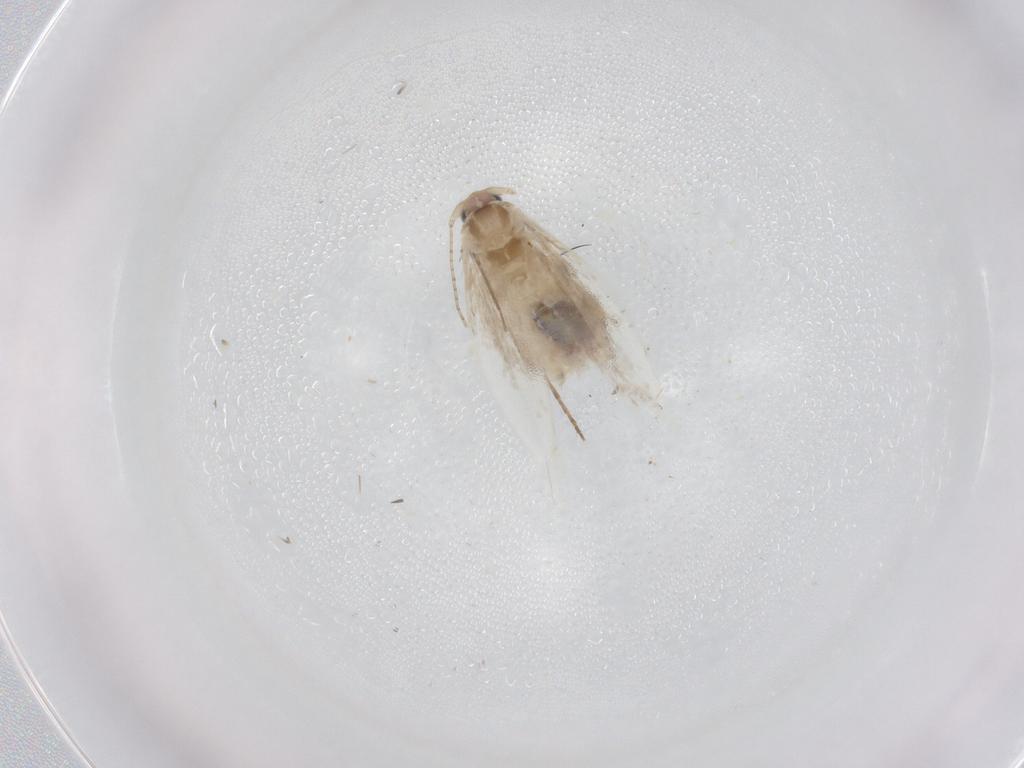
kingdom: Animalia
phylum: Arthropoda
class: Insecta
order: Lepidoptera
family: Bucculatricidae
